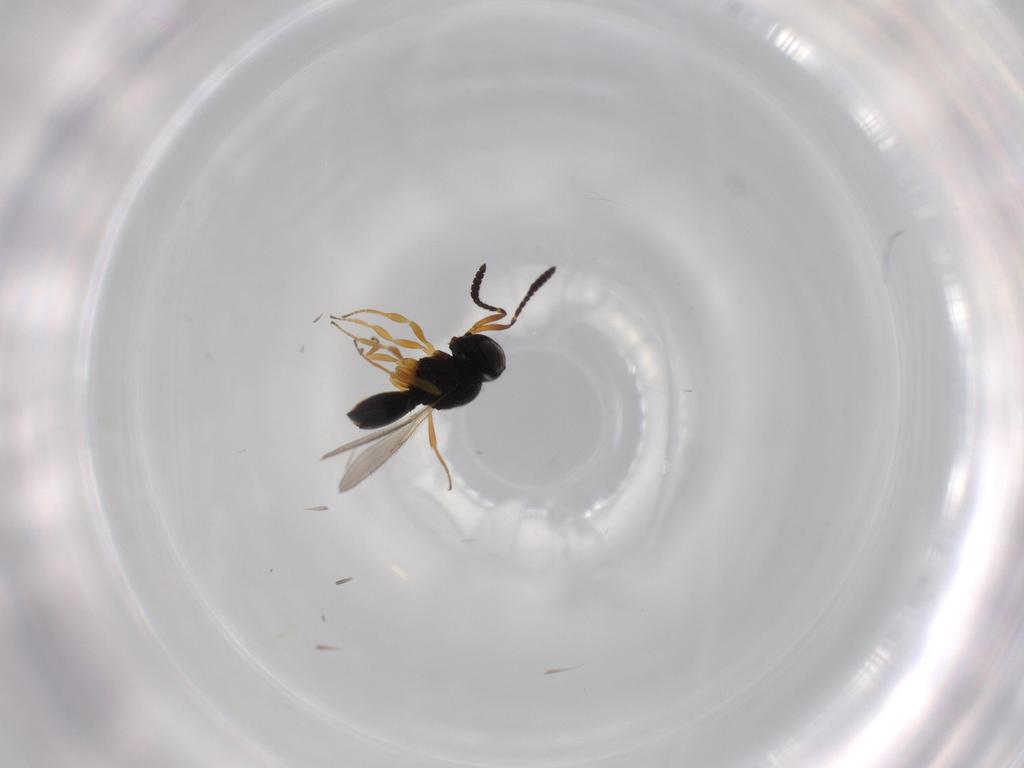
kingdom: Animalia
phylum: Arthropoda
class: Insecta
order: Hymenoptera
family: Scelionidae
